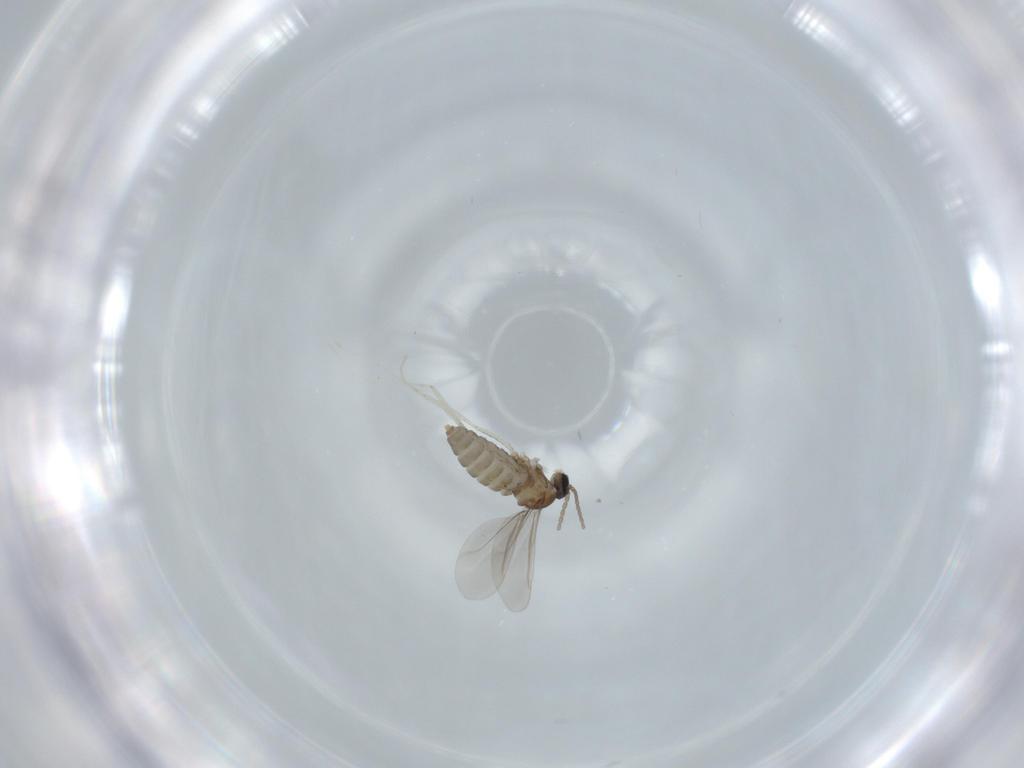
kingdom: Animalia
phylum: Arthropoda
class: Insecta
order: Diptera
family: Cecidomyiidae
